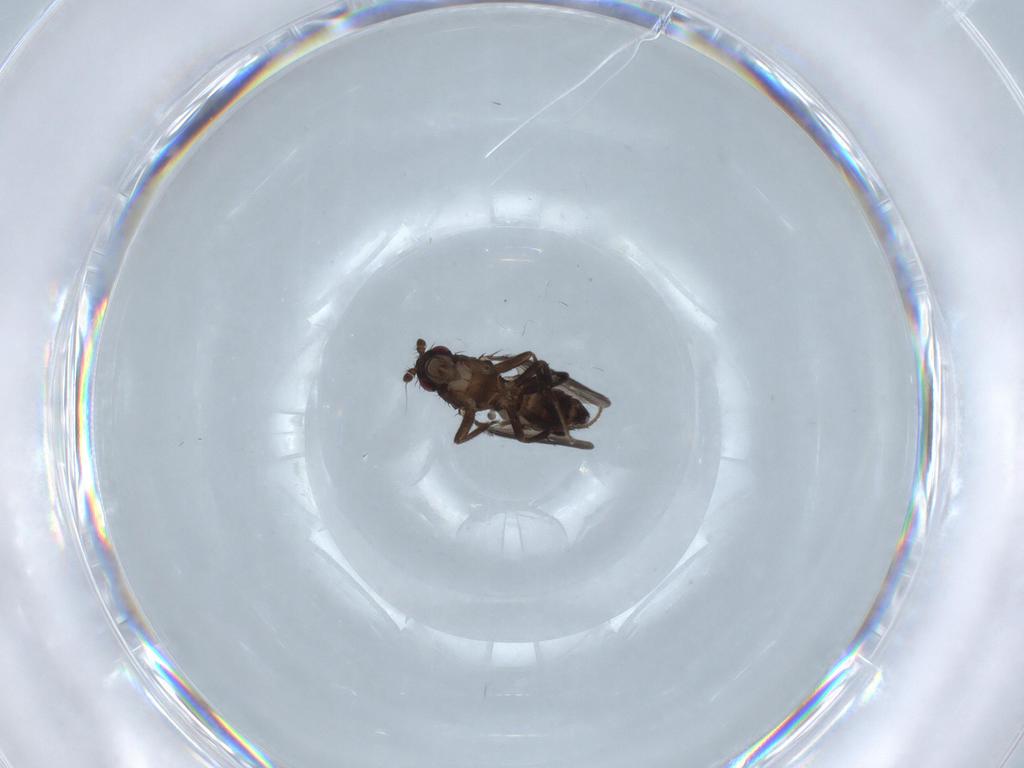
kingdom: Animalia
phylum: Arthropoda
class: Insecta
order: Diptera
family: Sphaeroceridae
